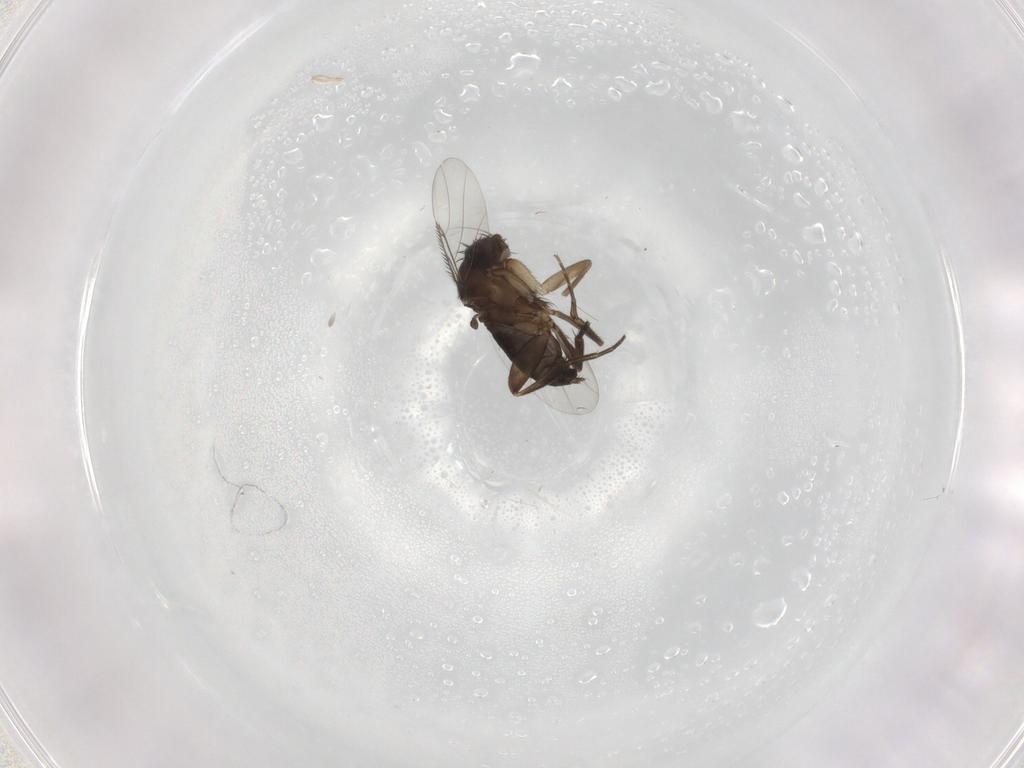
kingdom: Animalia
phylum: Arthropoda
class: Insecta
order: Diptera
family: Phoridae
